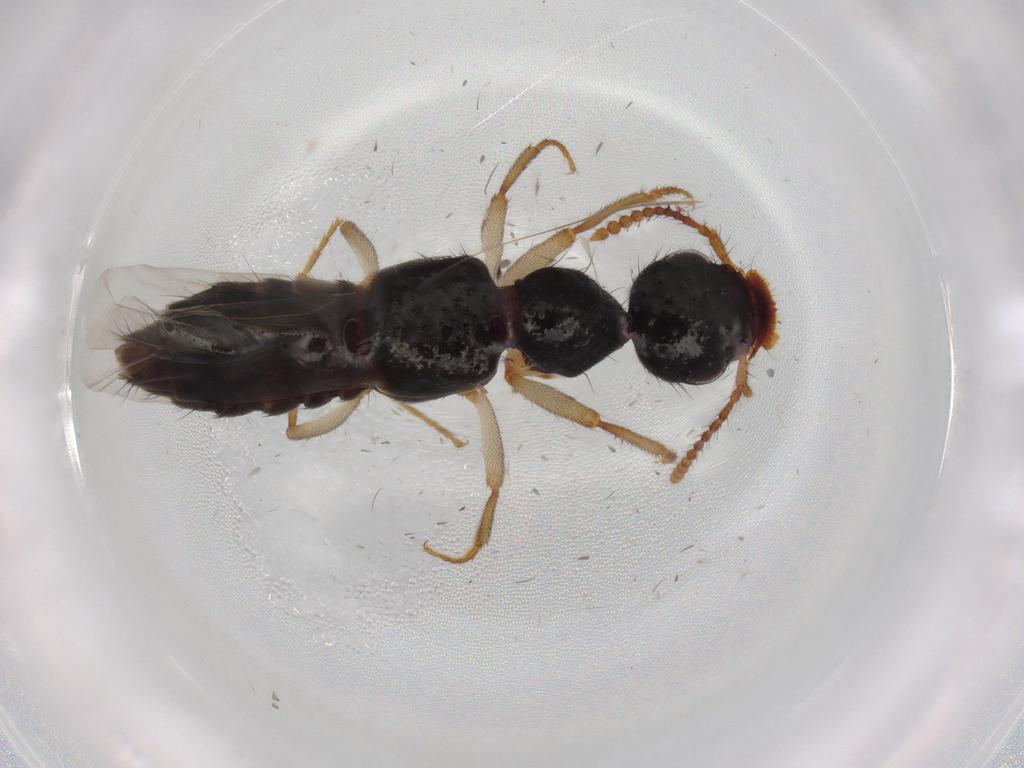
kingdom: Animalia
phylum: Arthropoda
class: Insecta
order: Coleoptera
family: Staphylinidae
